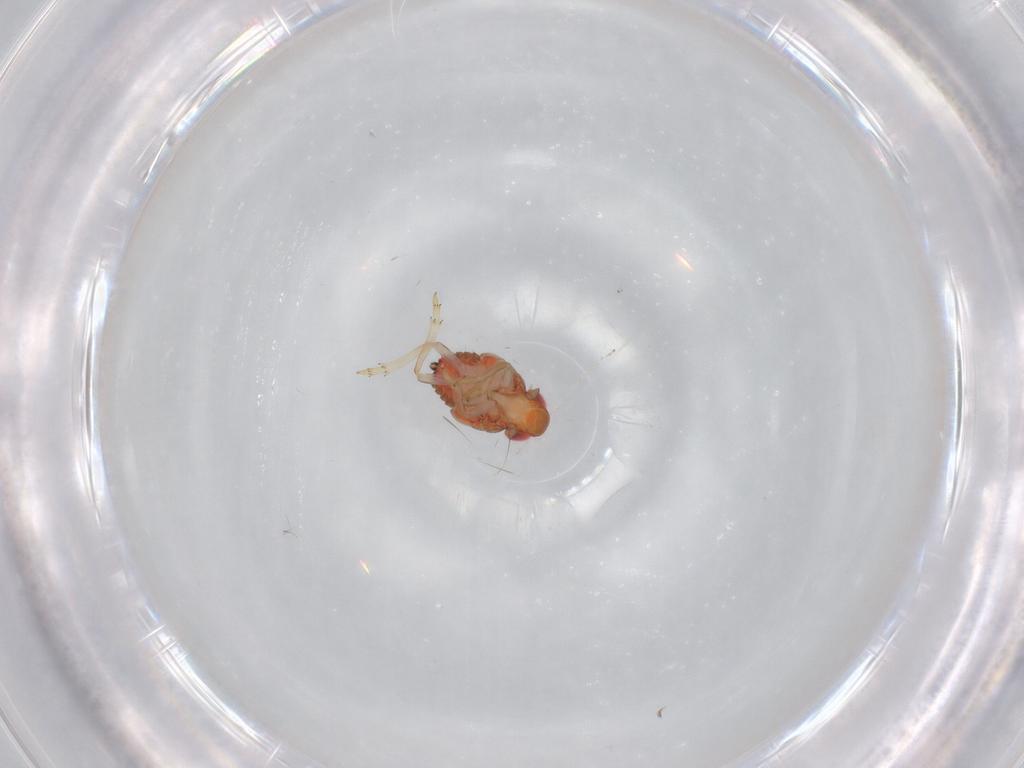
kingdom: Animalia
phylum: Arthropoda
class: Insecta
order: Hemiptera
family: Issidae
